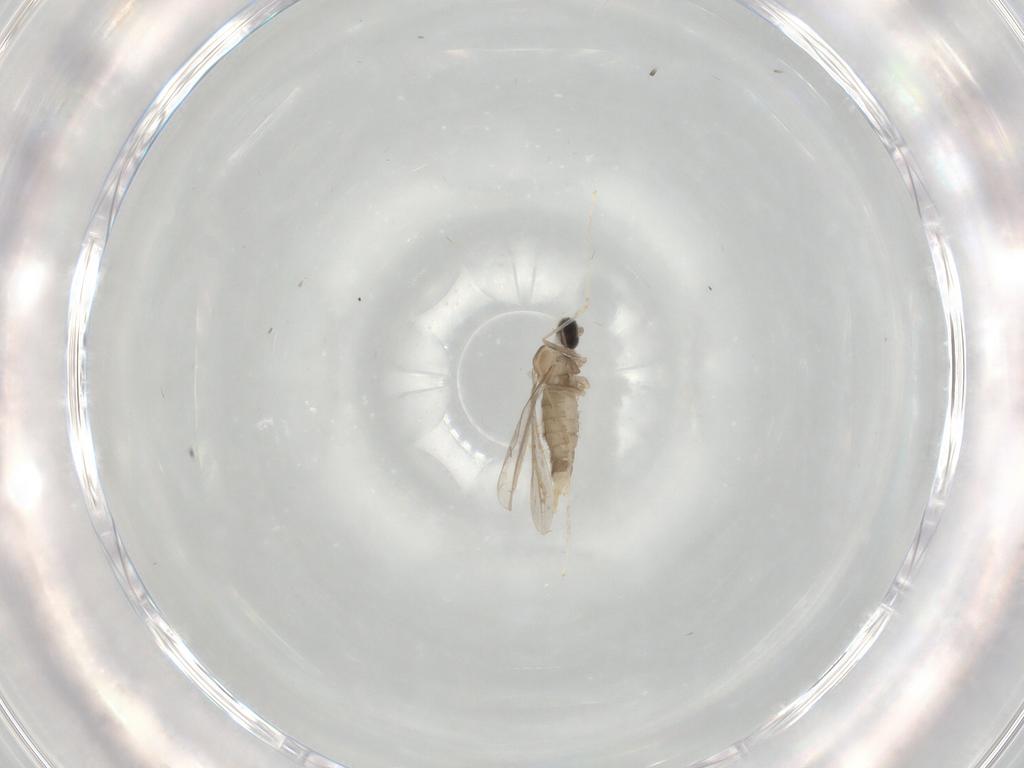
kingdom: Animalia
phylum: Arthropoda
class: Insecta
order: Diptera
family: Cecidomyiidae
